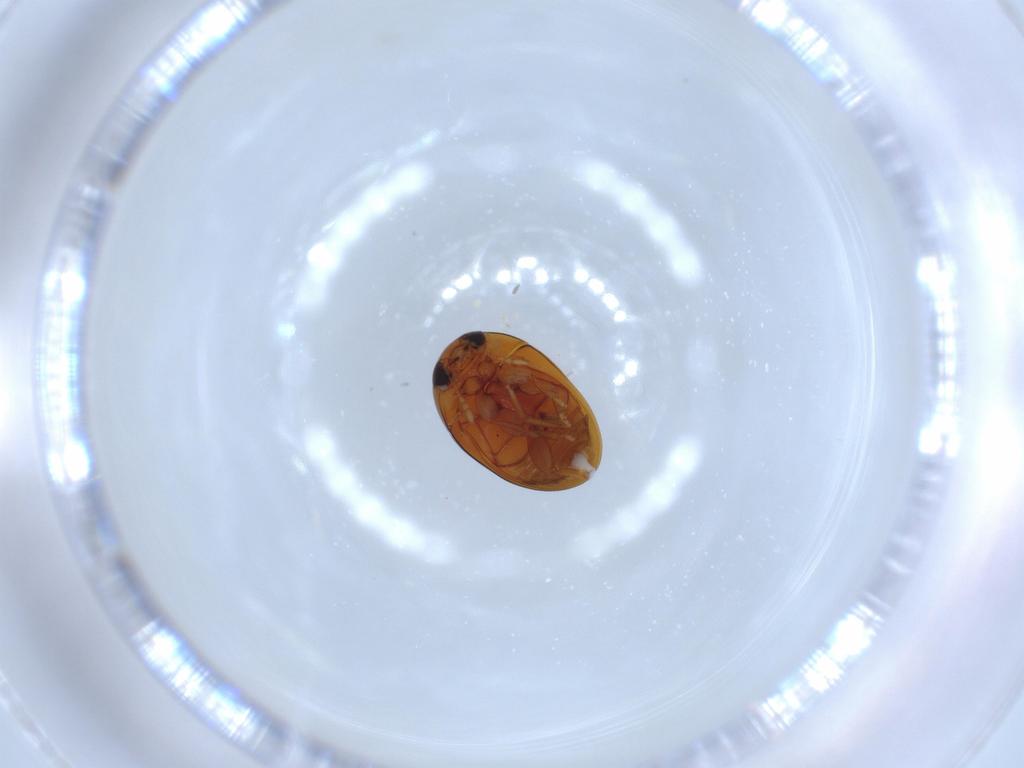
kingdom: Animalia
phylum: Arthropoda
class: Insecta
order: Coleoptera
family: Phalacridae
